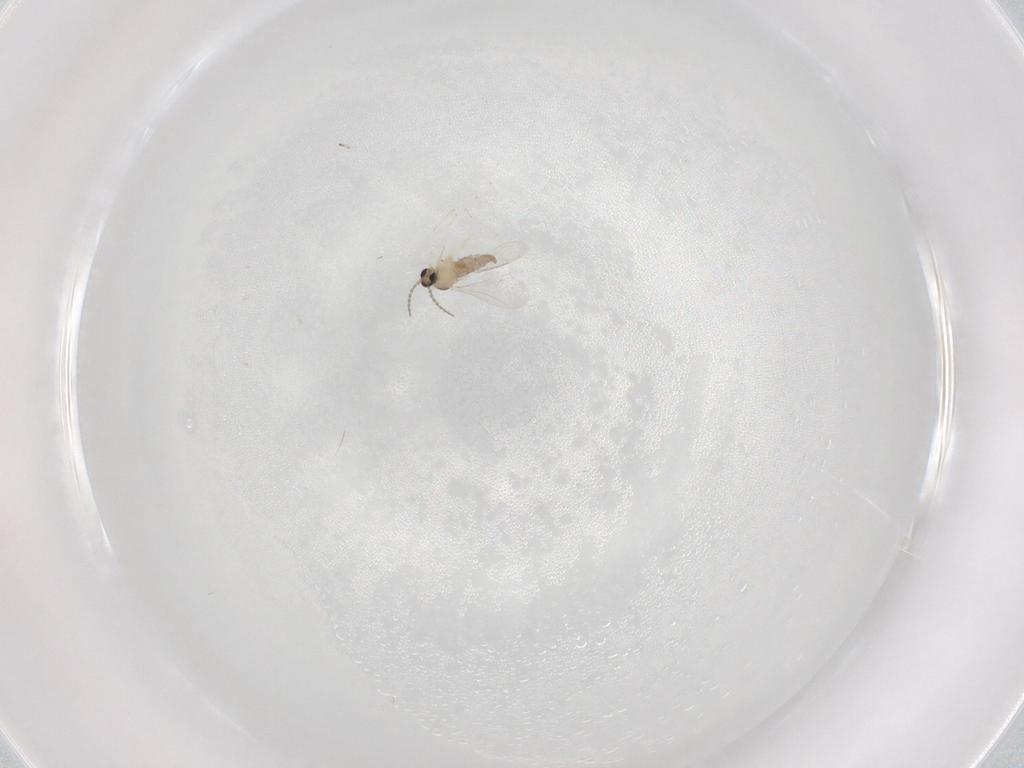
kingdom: Animalia
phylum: Arthropoda
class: Insecta
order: Diptera
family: Cecidomyiidae
